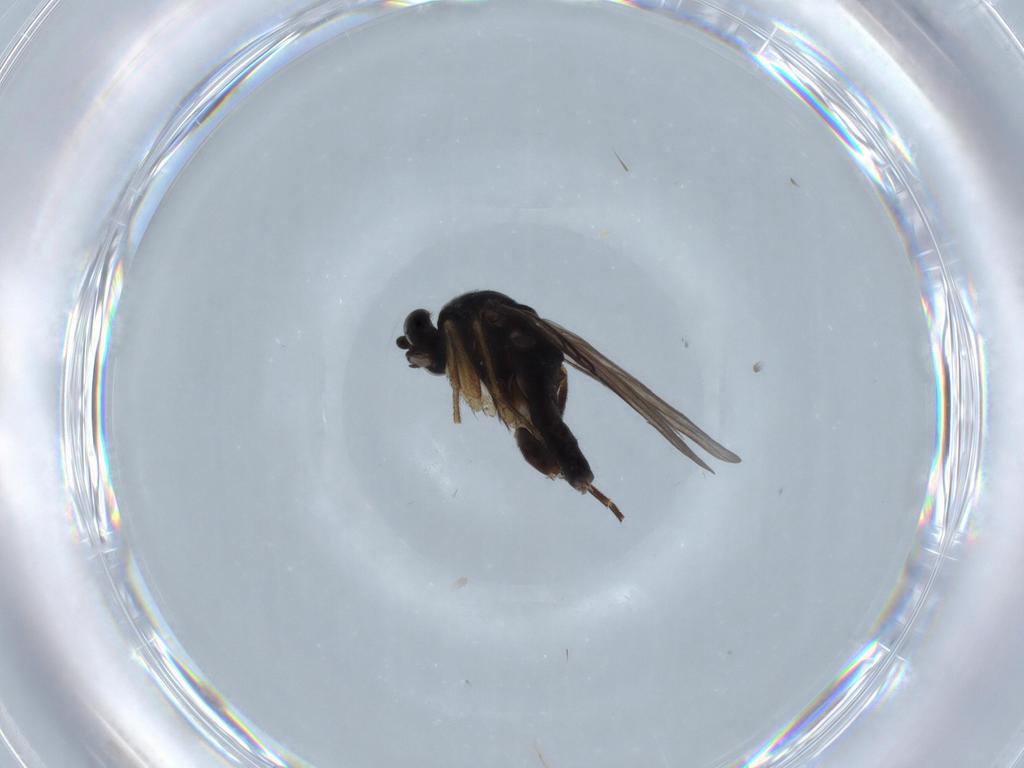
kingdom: Animalia
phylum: Arthropoda
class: Insecta
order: Diptera
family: Phoridae
